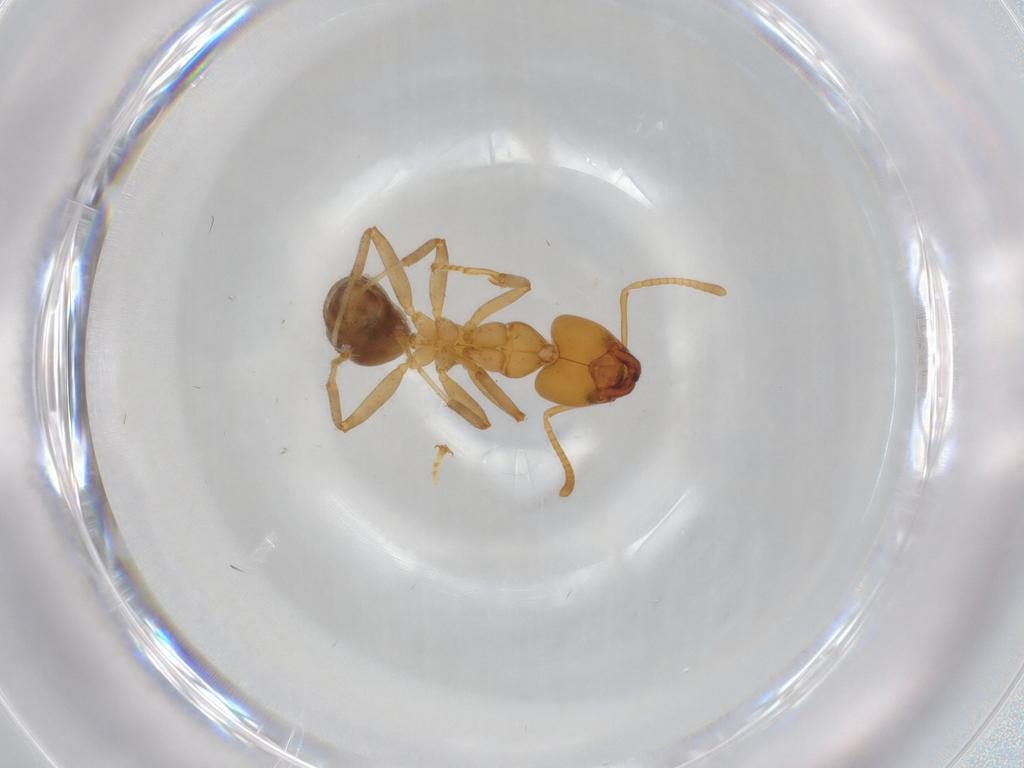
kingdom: Animalia
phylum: Arthropoda
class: Insecta
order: Hymenoptera
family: Formicidae
